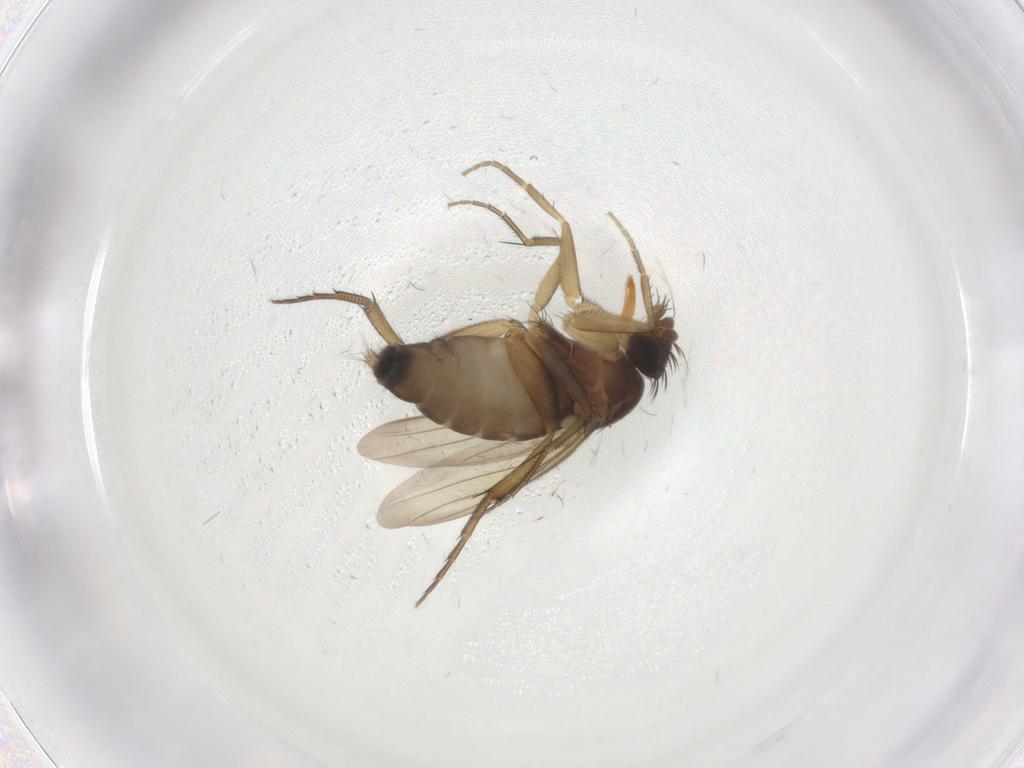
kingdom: Animalia
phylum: Arthropoda
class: Insecta
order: Diptera
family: Phoridae
